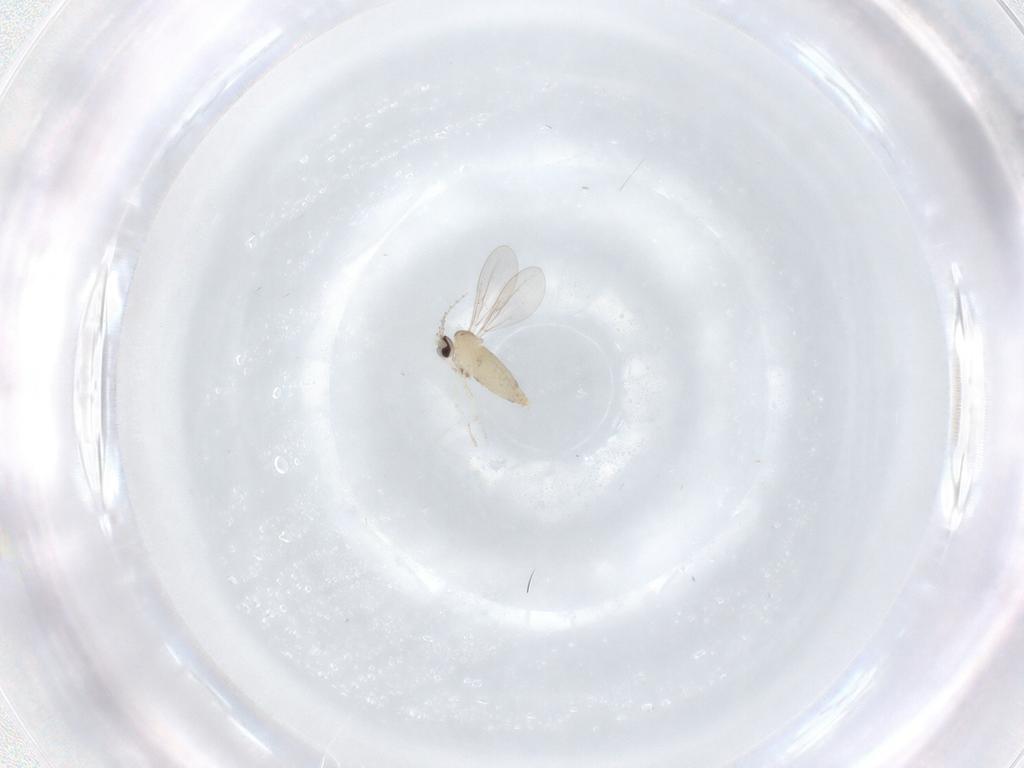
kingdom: Animalia
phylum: Arthropoda
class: Insecta
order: Diptera
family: Cecidomyiidae
